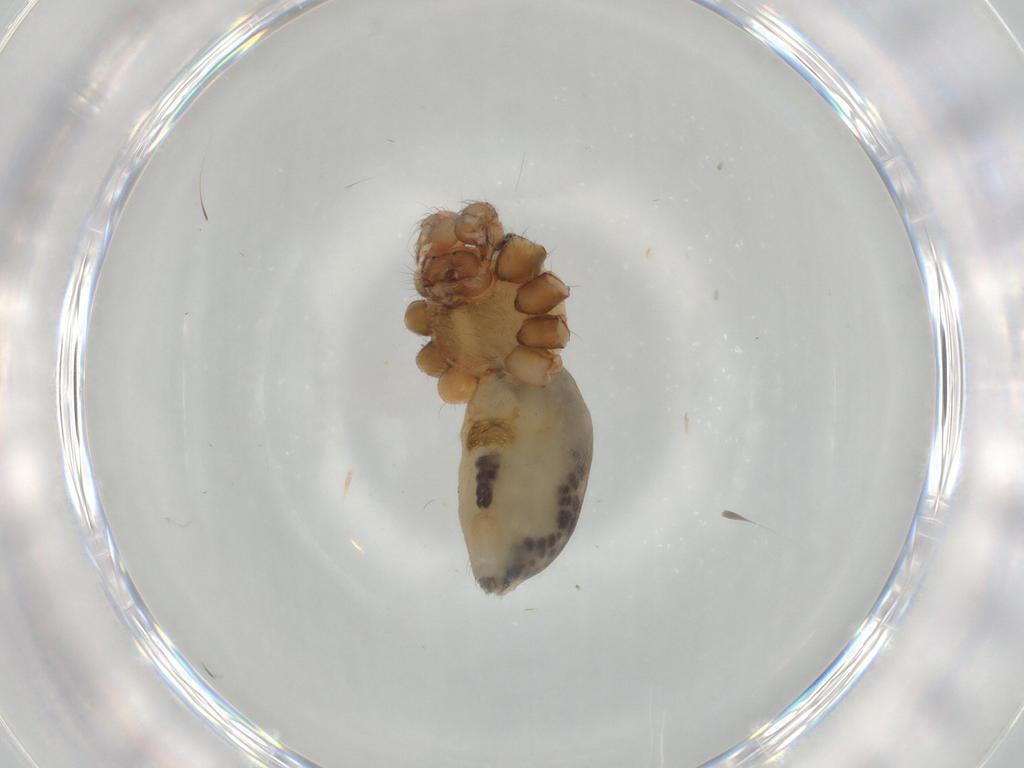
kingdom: Animalia
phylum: Arthropoda
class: Arachnida
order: Araneae
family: Pholcidae
